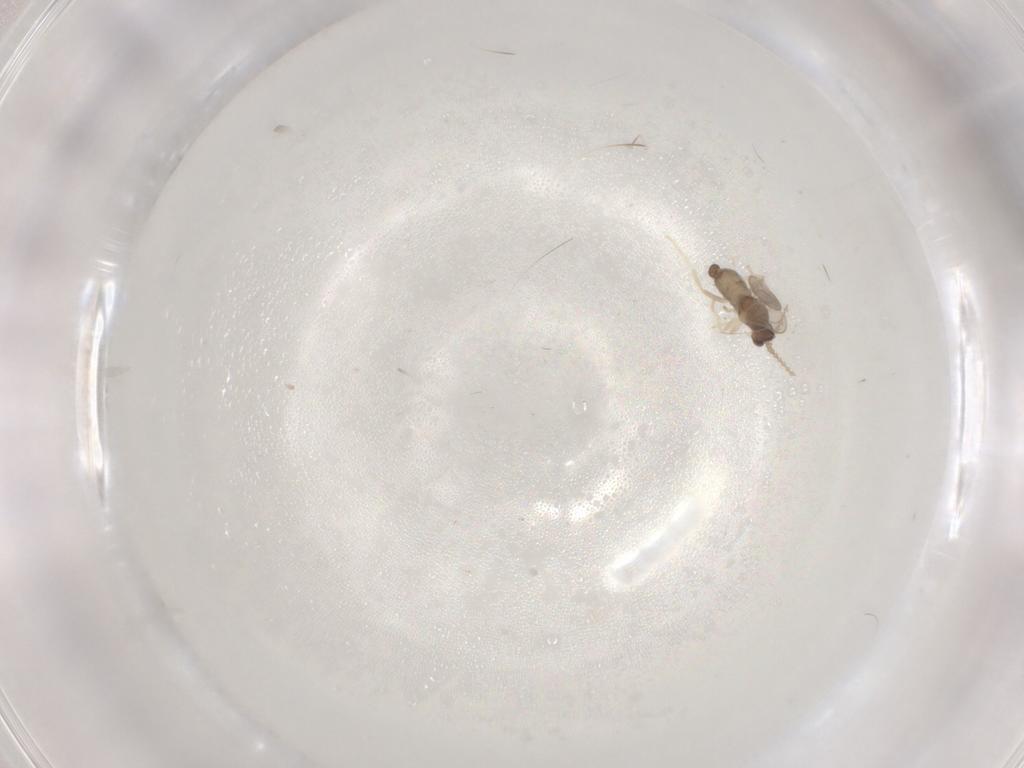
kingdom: Animalia
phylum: Arthropoda
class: Insecta
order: Diptera
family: Cecidomyiidae
